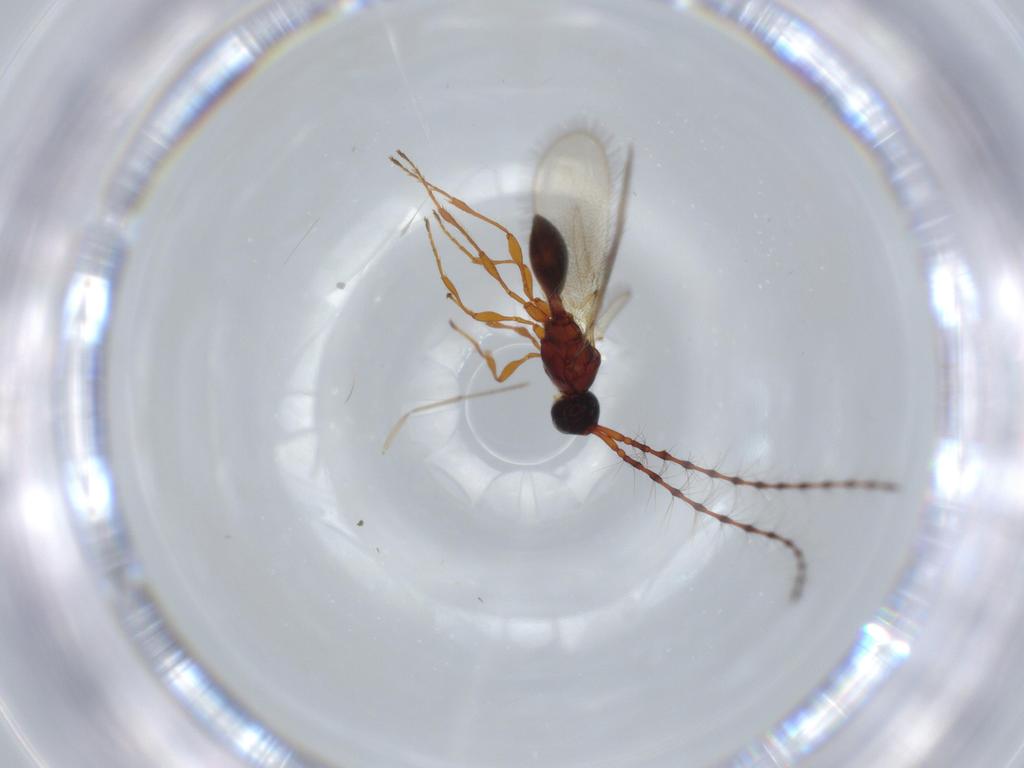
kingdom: Animalia
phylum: Arthropoda
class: Insecta
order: Hymenoptera
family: Diapriidae
